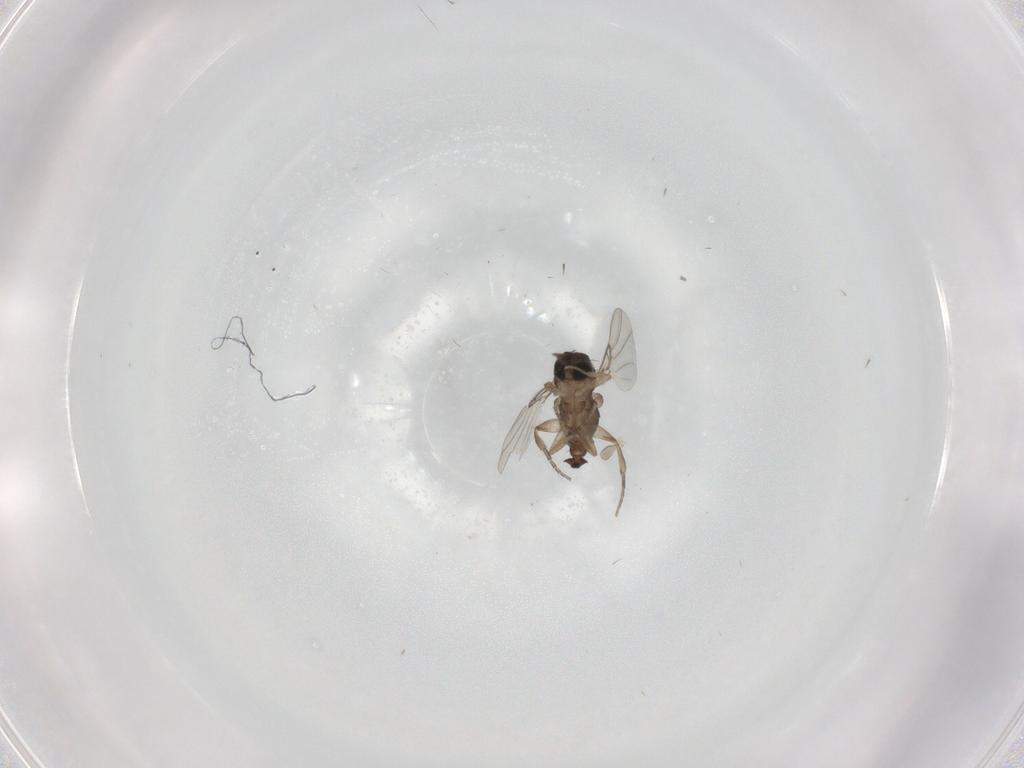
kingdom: Animalia
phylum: Arthropoda
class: Insecta
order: Diptera
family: Phoridae
